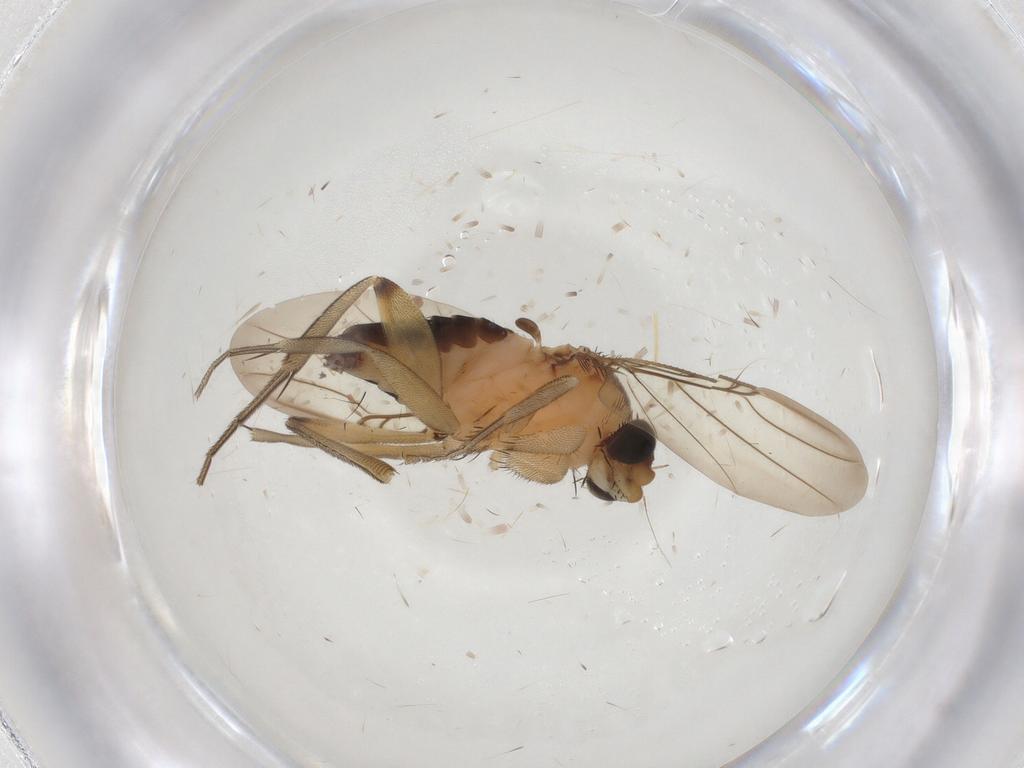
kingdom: Animalia
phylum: Arthropoda
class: Insecta
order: Diptera
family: Phoridae
